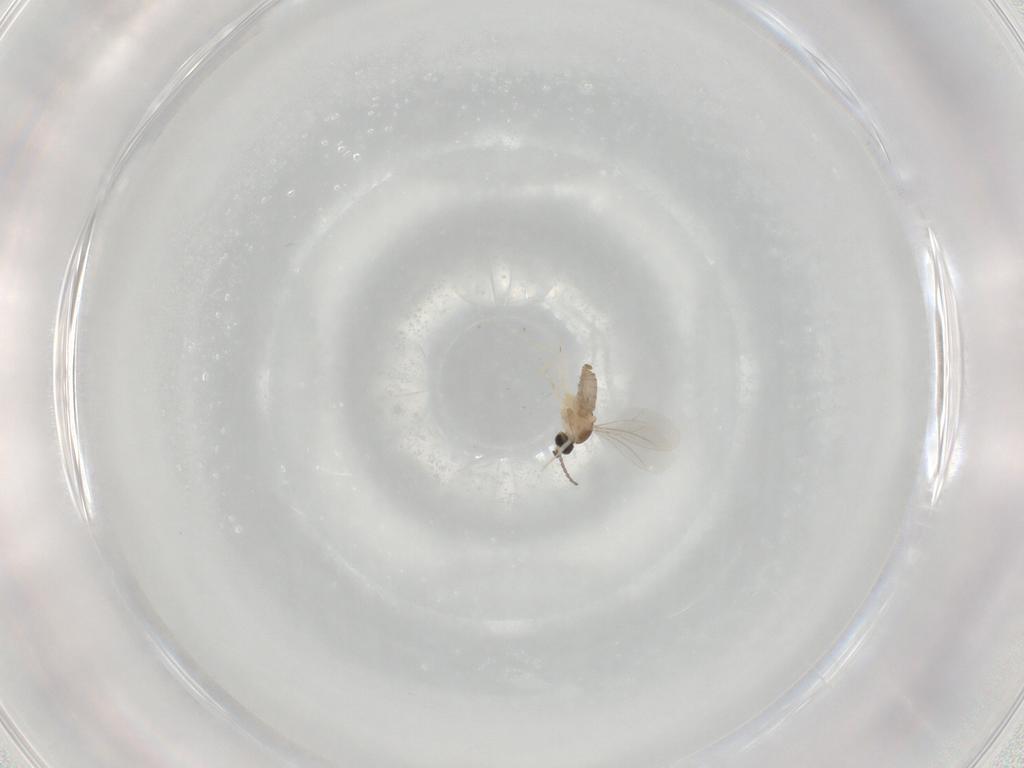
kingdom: Animalia
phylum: Arthropoda
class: Insecta
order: Diptera
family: Cecidomyiidae
